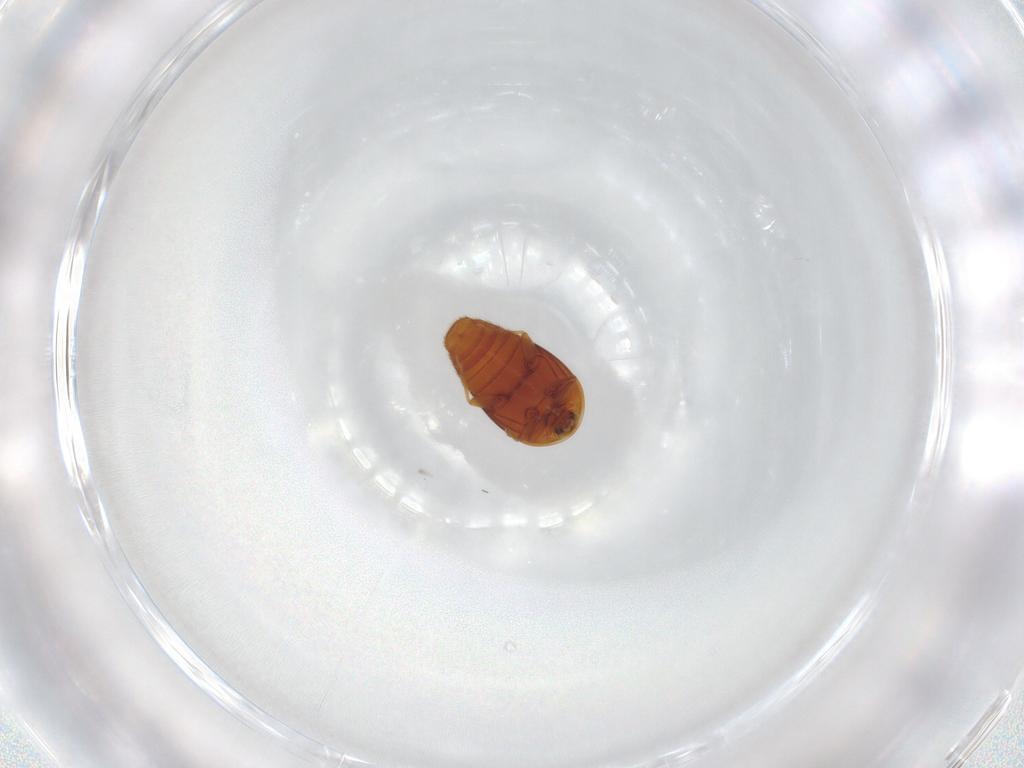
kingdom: Animalia
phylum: Arthropoda
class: Insecta
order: Coleoptera
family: Corylophidae
